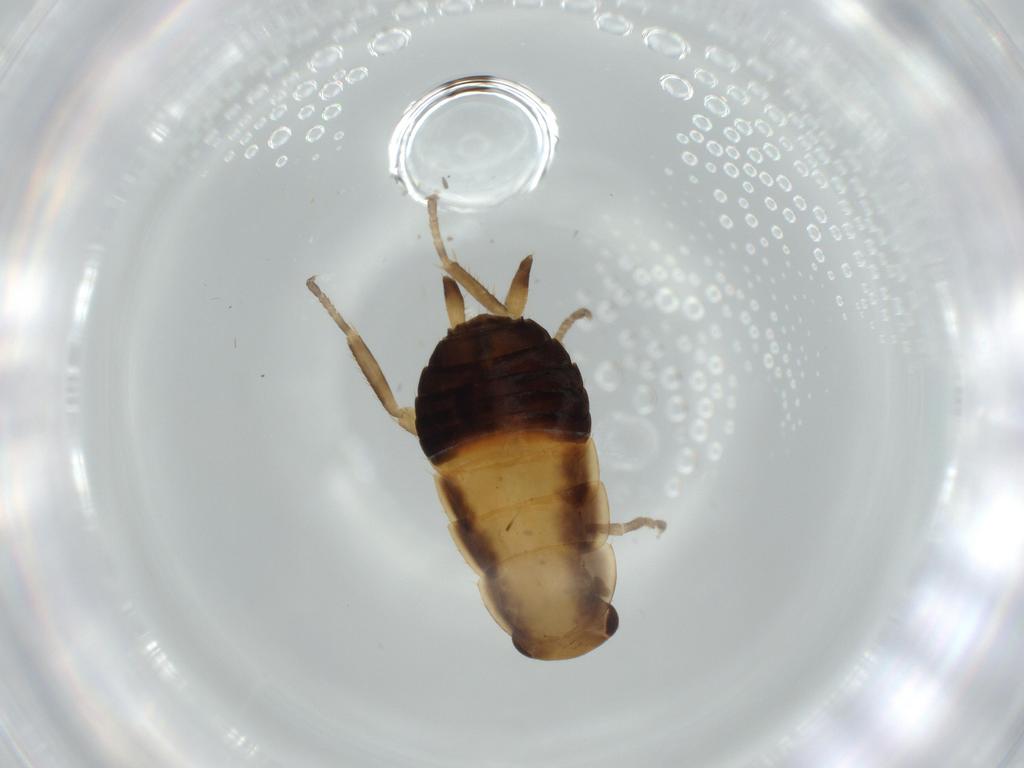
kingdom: Animalia
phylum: Arthropoda
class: Insecta
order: Blattodea
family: Ectobiidae
